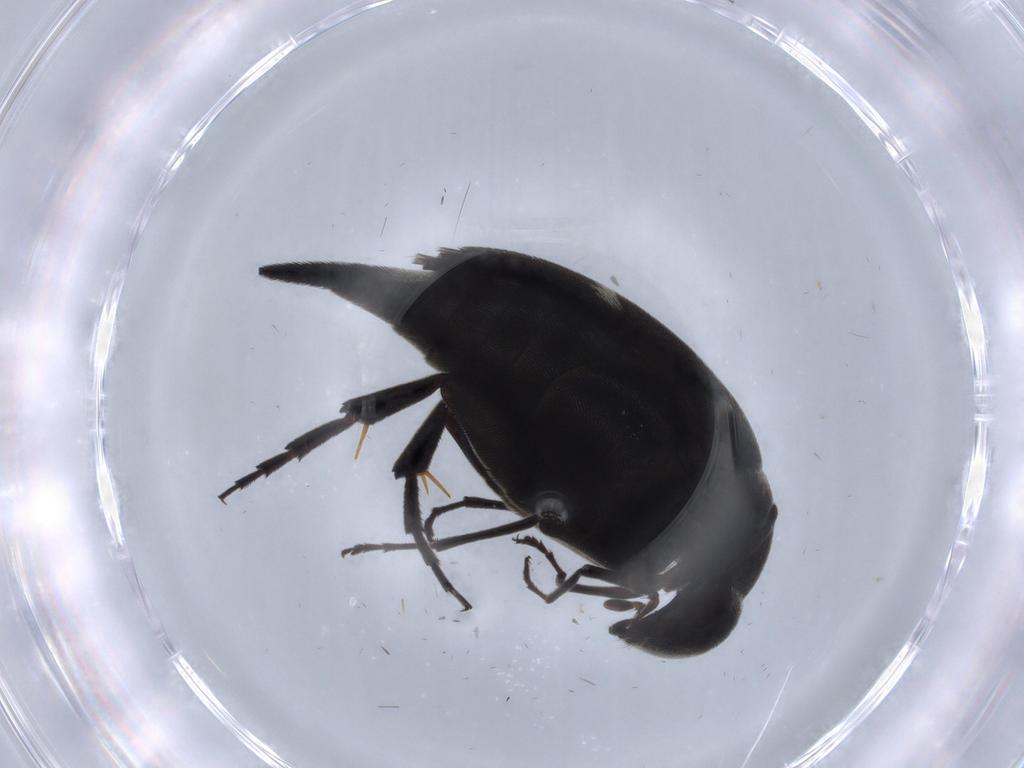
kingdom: Animalia
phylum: Arthropoda
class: Insecta
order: Coleoptera
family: Mordellidae
